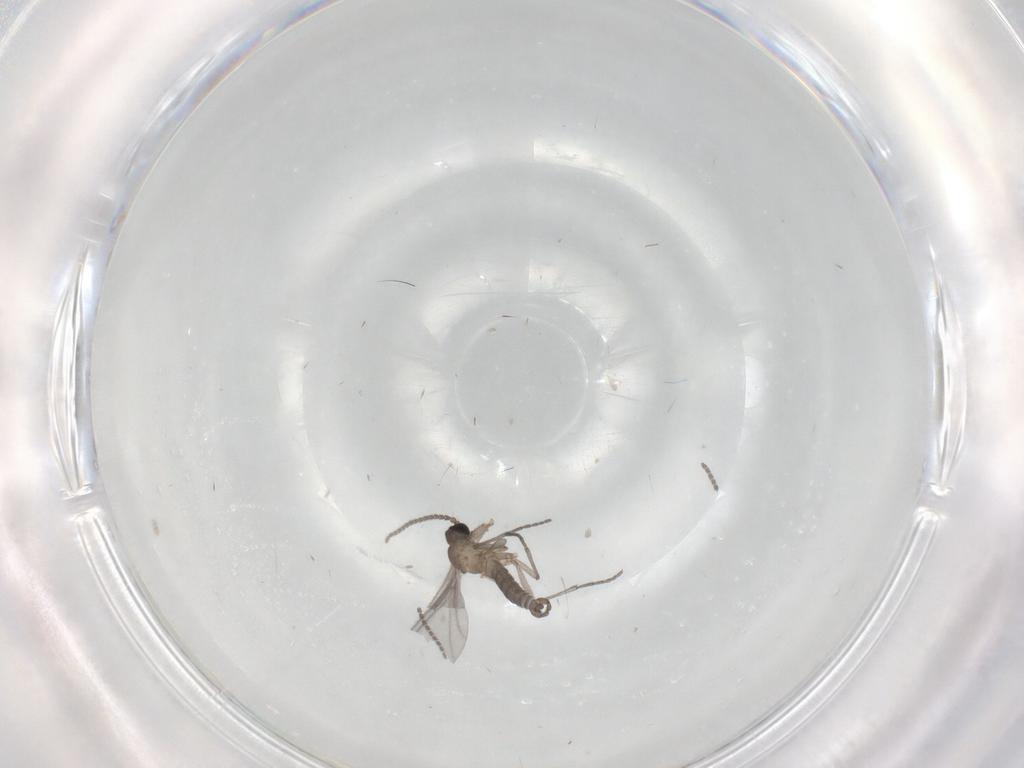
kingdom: Animalia
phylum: Arthropoda
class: Insecta
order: Diptera
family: Sciaridae
